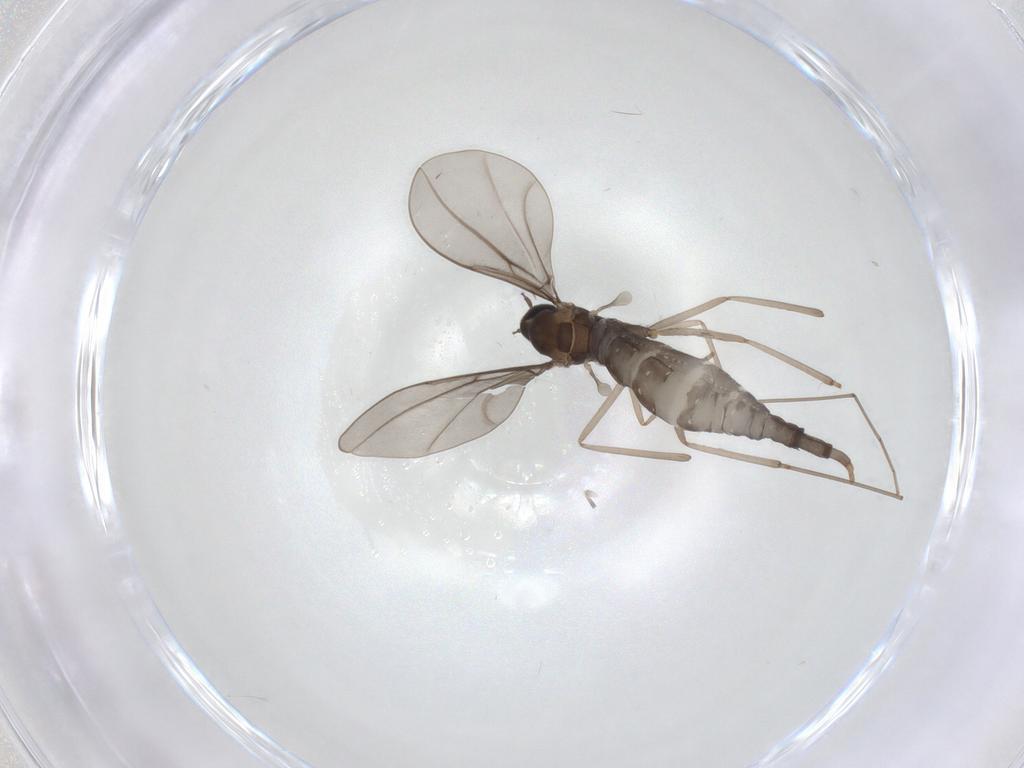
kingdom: Animalia
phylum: Arthropoda
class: Insecta
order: Diptera
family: Cecidomyiidae
